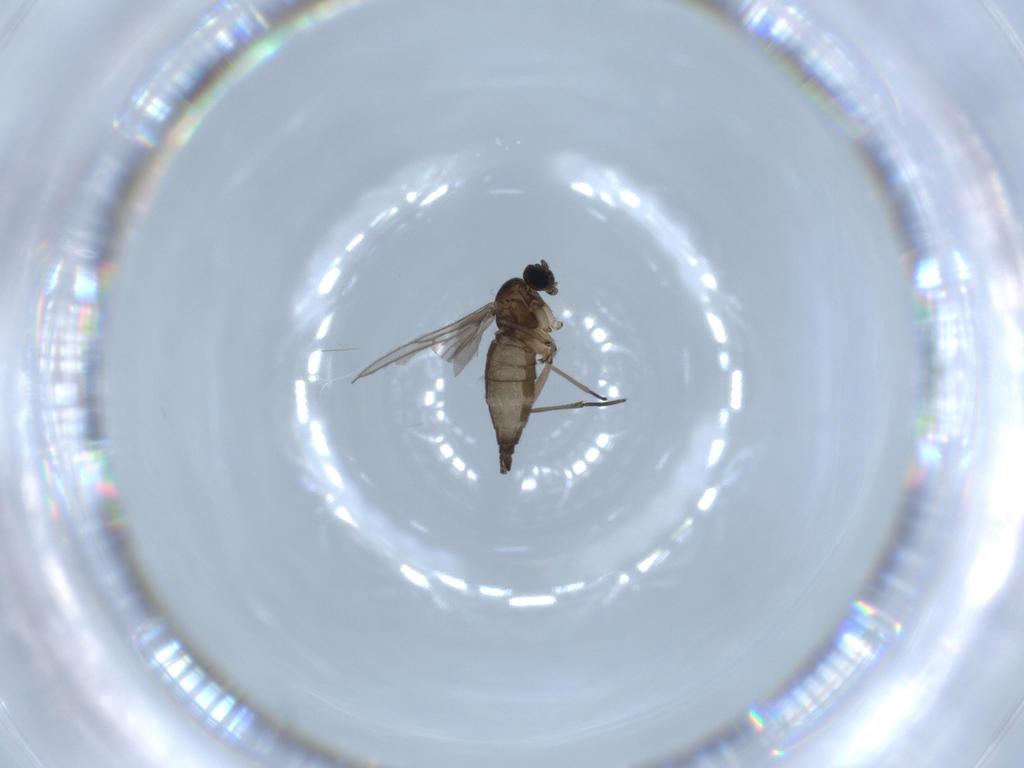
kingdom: Animalia
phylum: Arthropoda
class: Insecta
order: Diptera
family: Sciaridae
